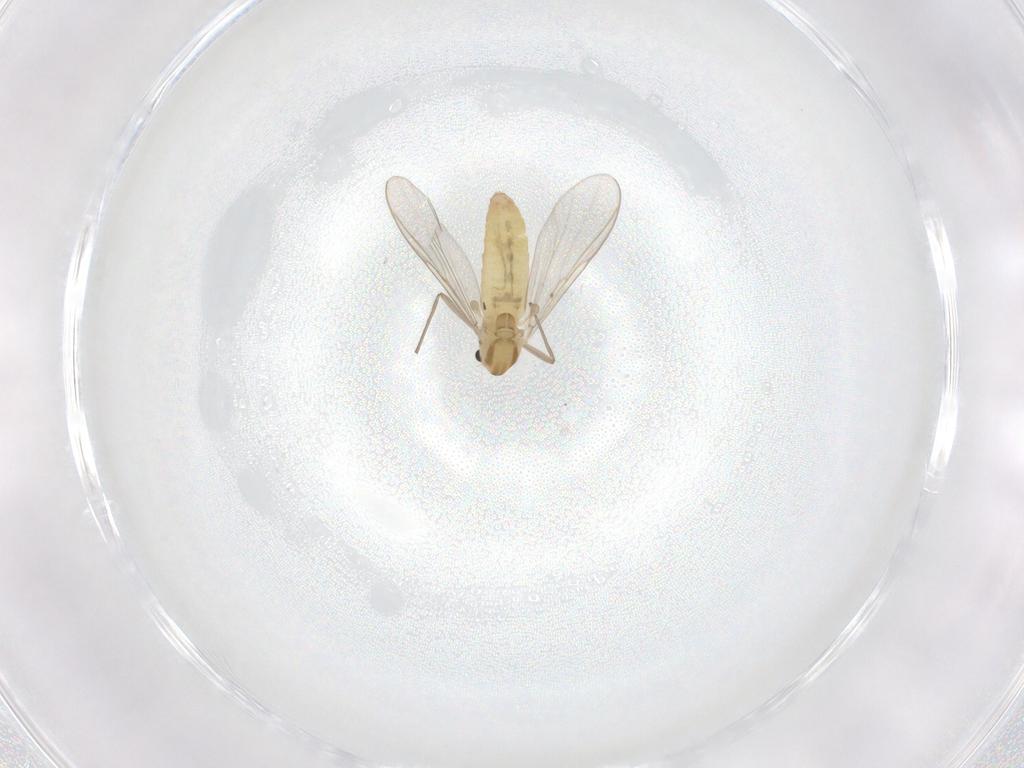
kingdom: Animalia
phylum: Arthropoda
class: Insecta
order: Diptera
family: Chironomidae
